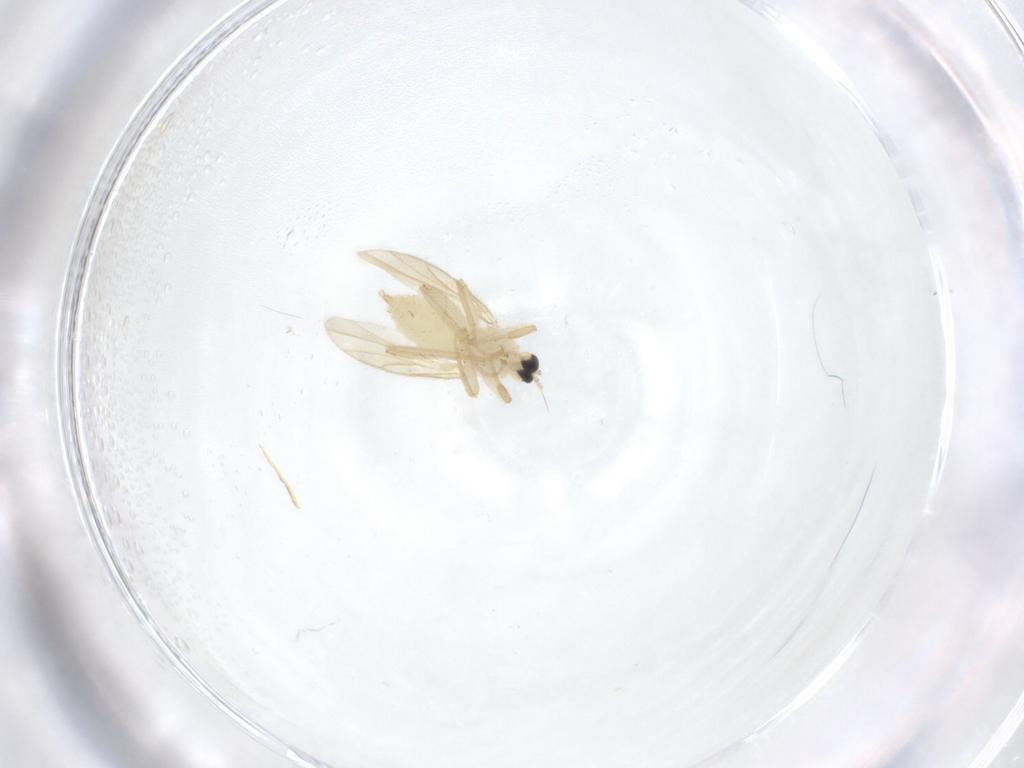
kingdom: Animalia
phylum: Arthropoda
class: Insecta
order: Diptera
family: Hybotidae
